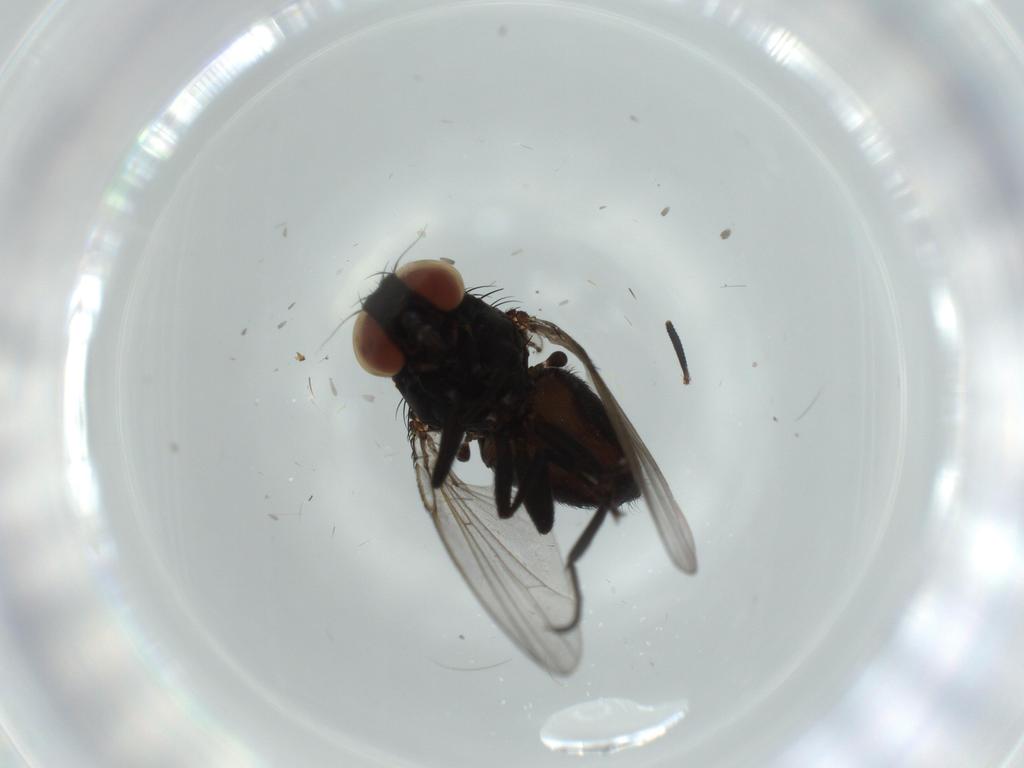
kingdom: Animalia
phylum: Arthropoda
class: Insecta
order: Diptera
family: Milichiidae
